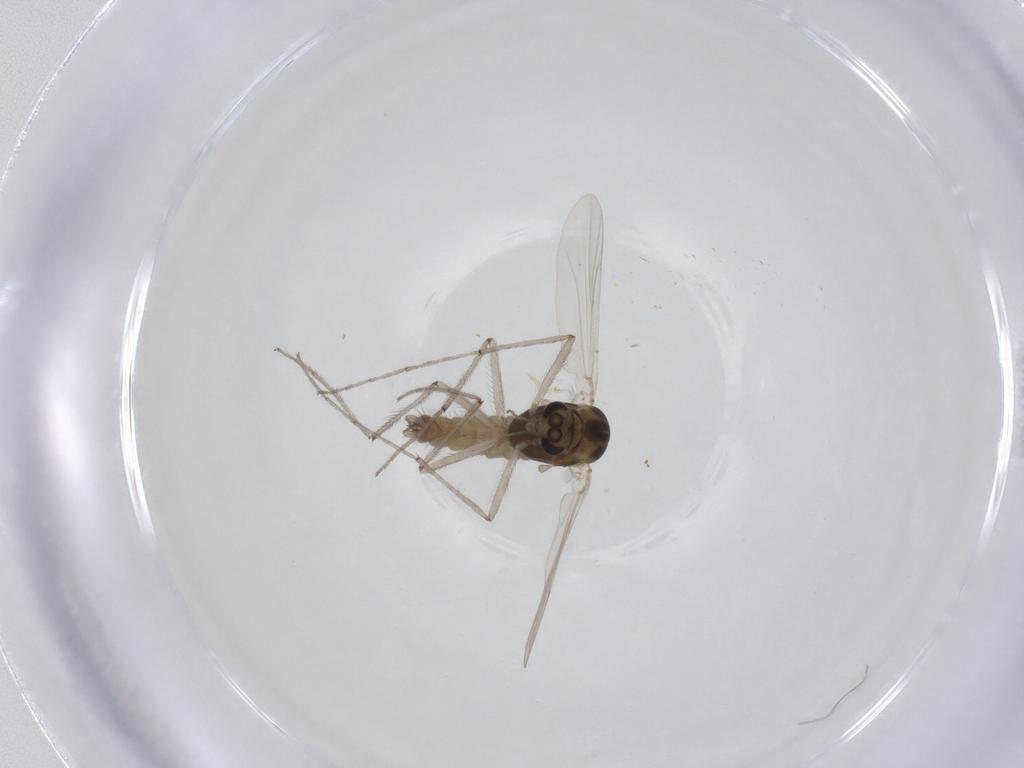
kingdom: Animalia
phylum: Arthropoda
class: Insecta
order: Diptera
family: Chironomidae
